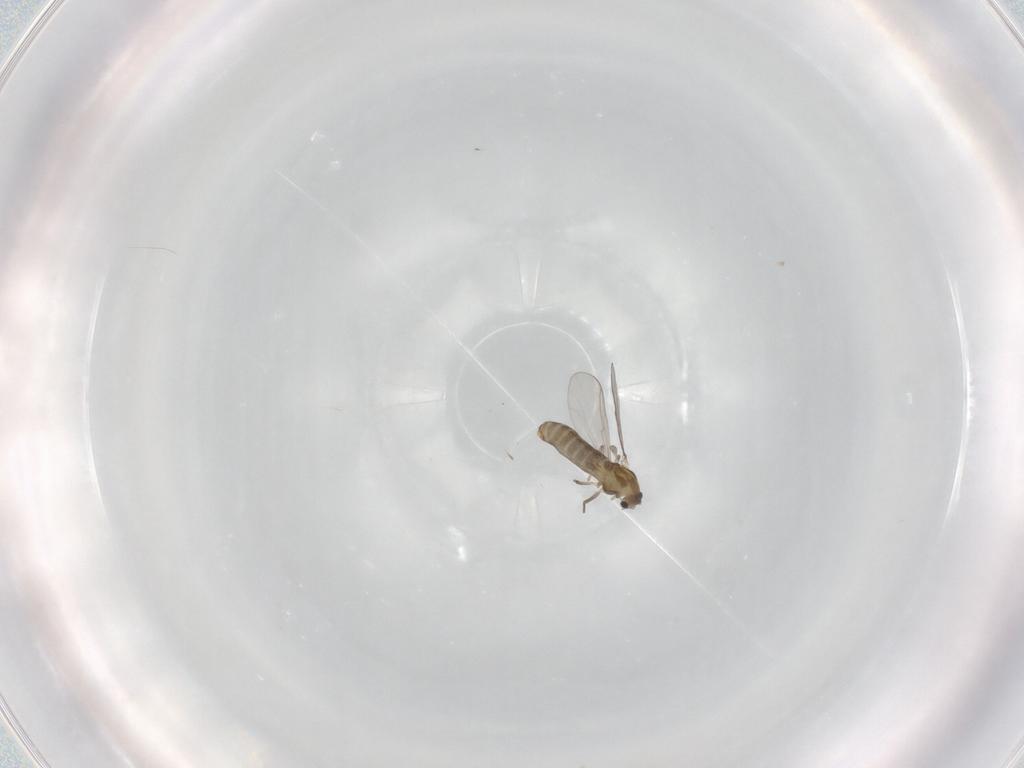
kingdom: Animalia
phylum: Arthropoda
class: Insecta
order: Diptera
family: Chironomidae
